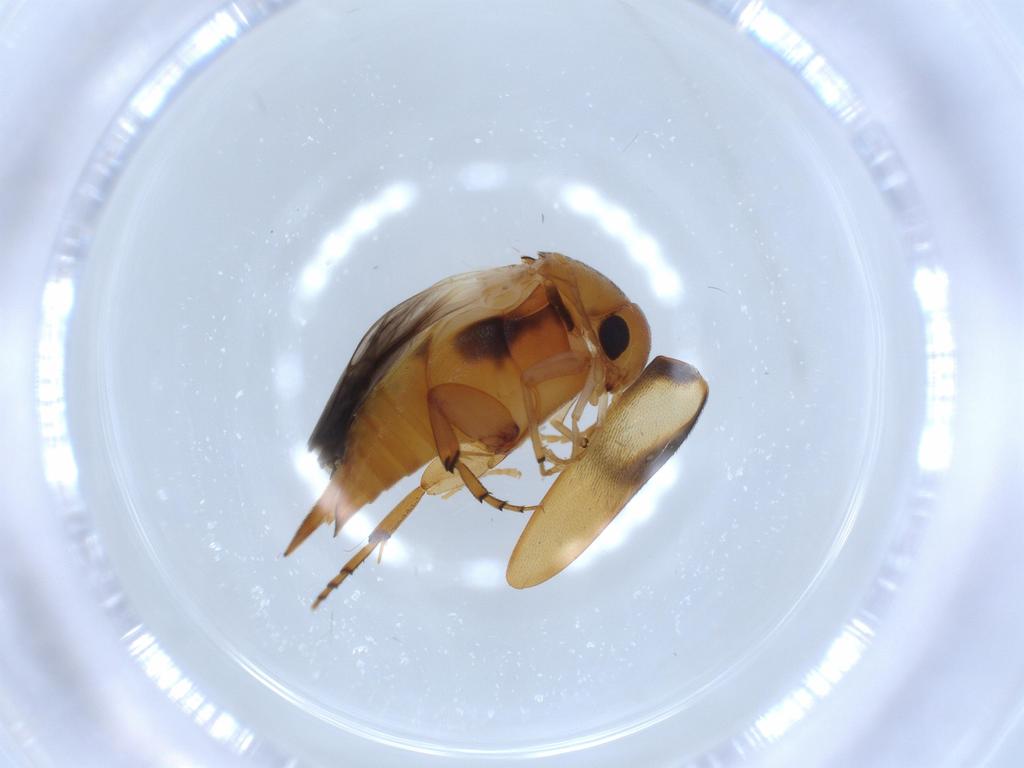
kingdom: Animalia
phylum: Arthropoda
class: Insecta
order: Coleoptera
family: Mordellidae
